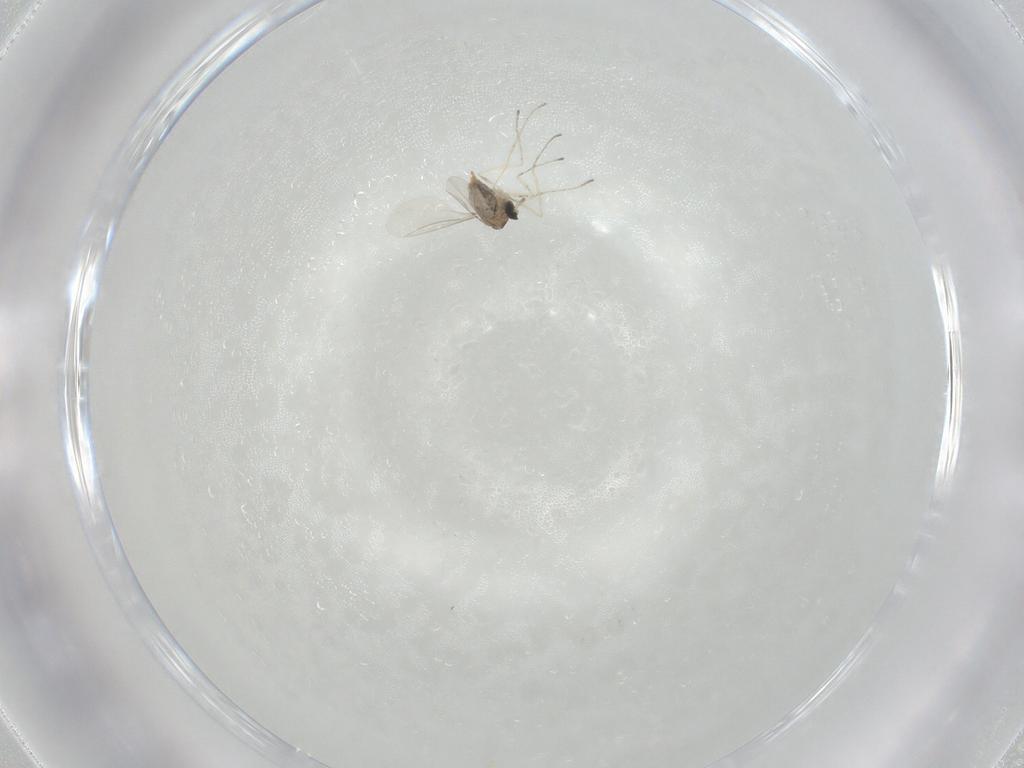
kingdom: Animalia
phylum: Arthropoda
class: Insecta
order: Diptera
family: Cecidomyiidae
